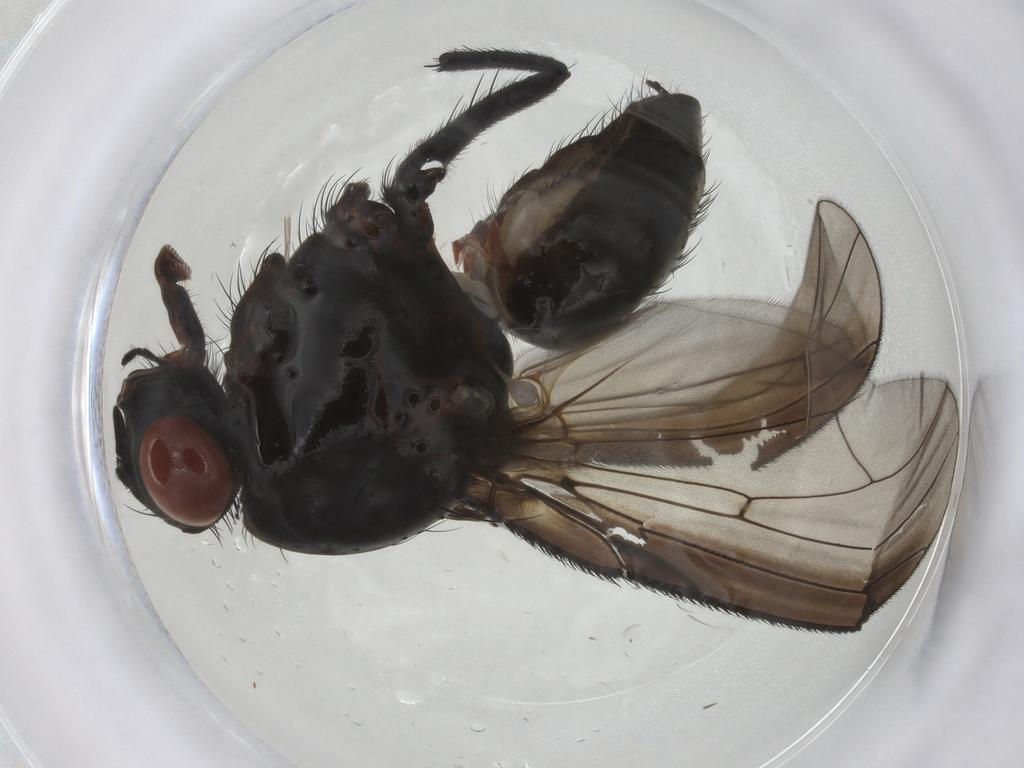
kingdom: Animalia
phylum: Arthropoda
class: Insecta
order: Diptera
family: Anthomyiidae
